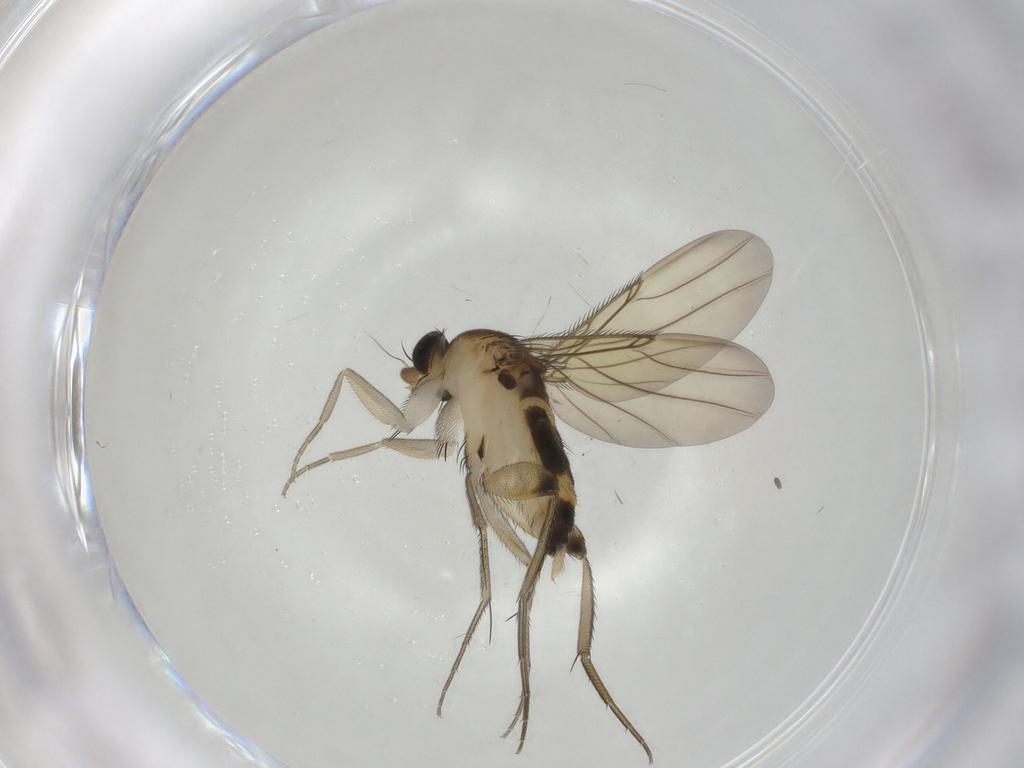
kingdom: Animalia
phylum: Arthropoda
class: Insecta
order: Diptera
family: Phoridae
